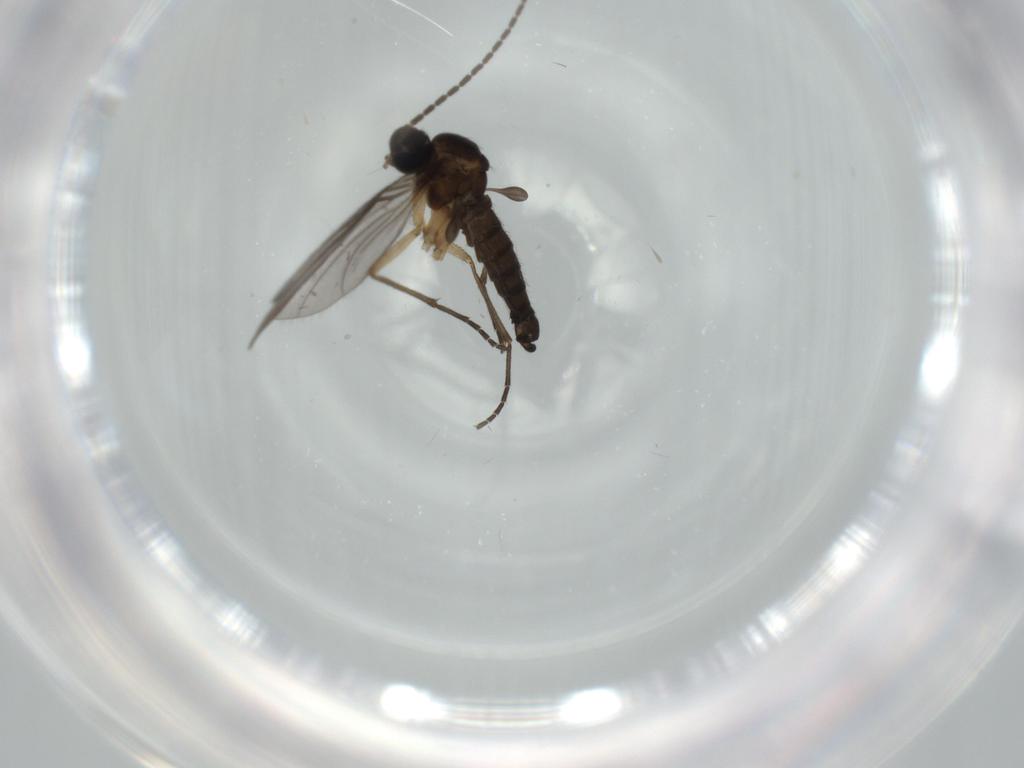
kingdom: Animalia
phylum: Arthropoda
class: Insecta
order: Diptera
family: Sciaridae
